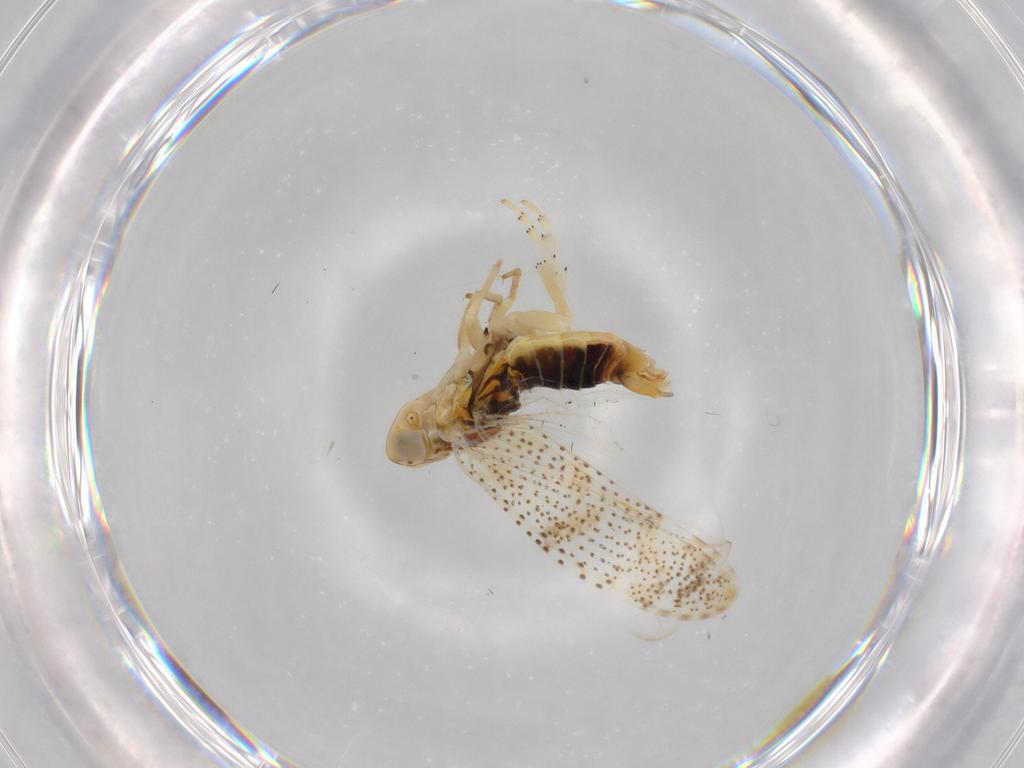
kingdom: Animalia
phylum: Arthropoda
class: Insecta
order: Hemiptera
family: Cixiidae
